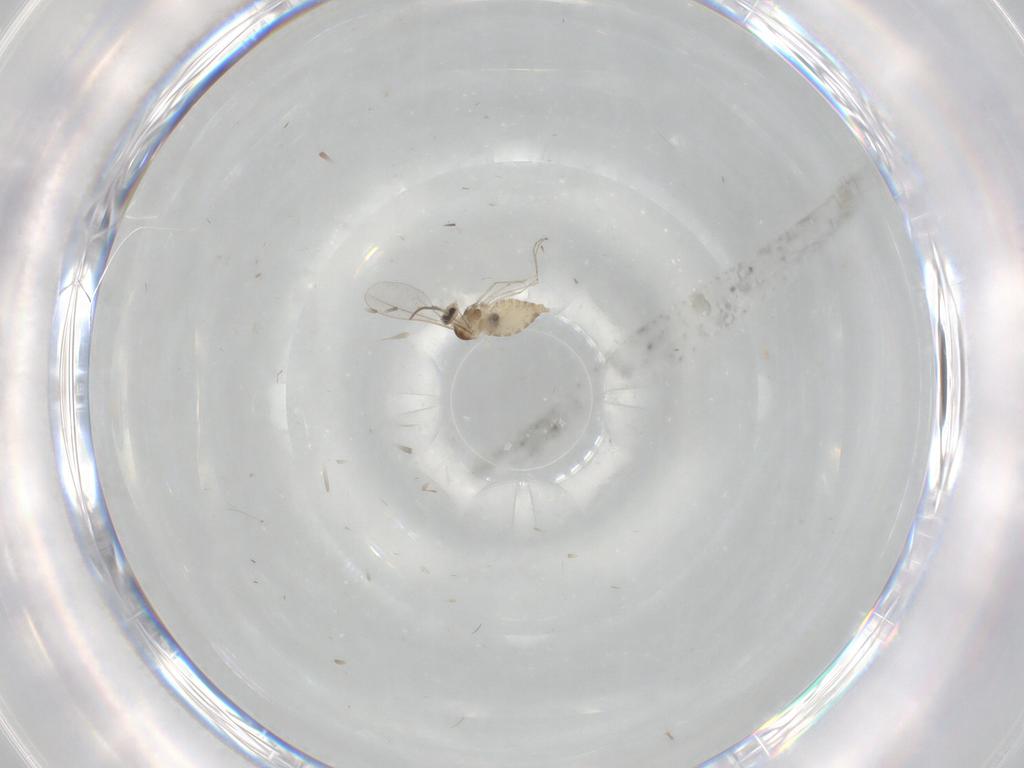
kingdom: Animalia
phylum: Arthropoda
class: Insecta
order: Diptera
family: Cecidomyiidae
